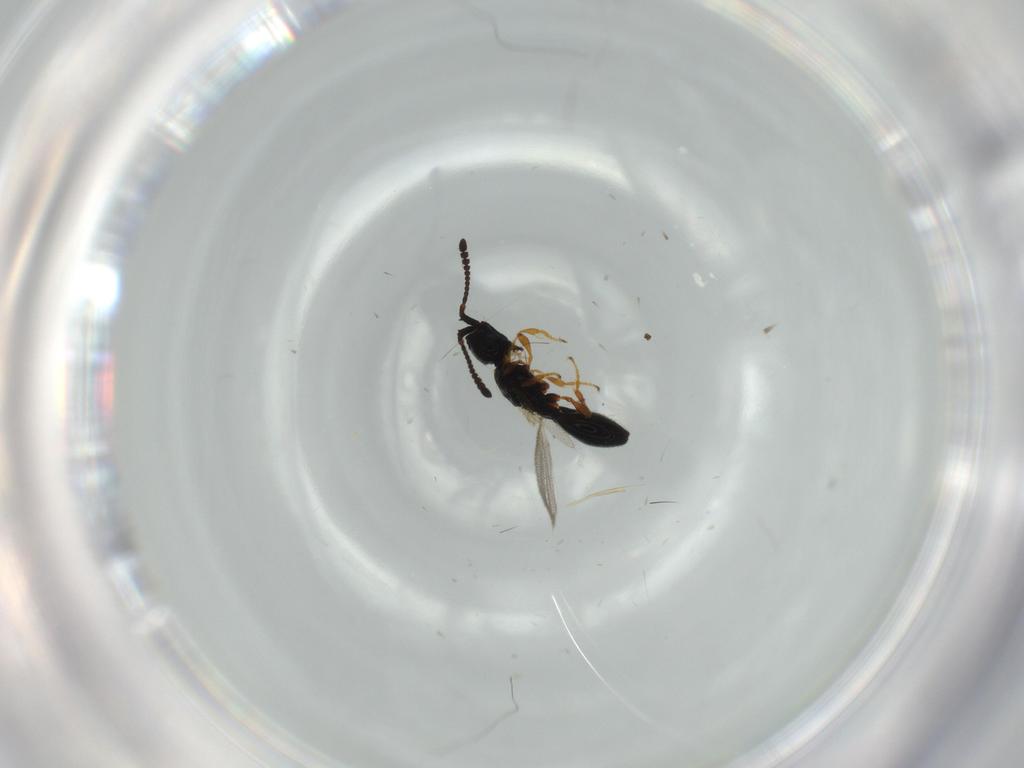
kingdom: Animalia
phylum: Arthropoda
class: Insecta
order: Hymenoptera
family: Diapriidae
